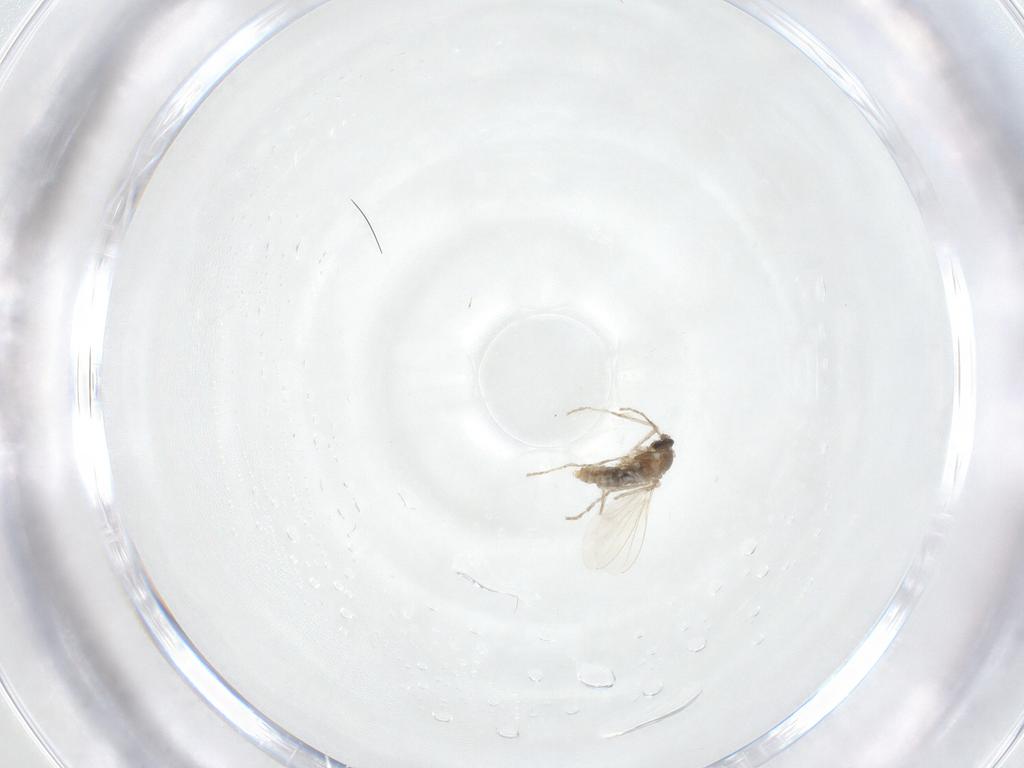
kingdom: Animalia
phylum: Arthropoda
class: Insecta
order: Diptera
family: Cecidomyiidae
